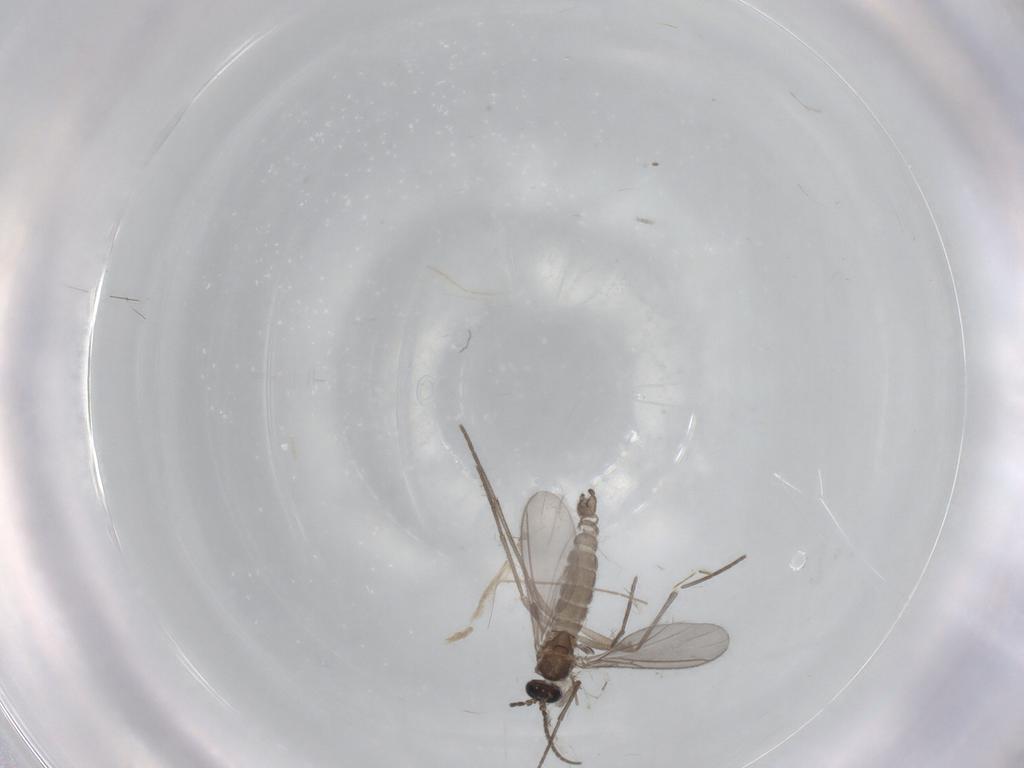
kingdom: Animalia
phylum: Arthropoda
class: Insecta
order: Diptera
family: Sciaridae
